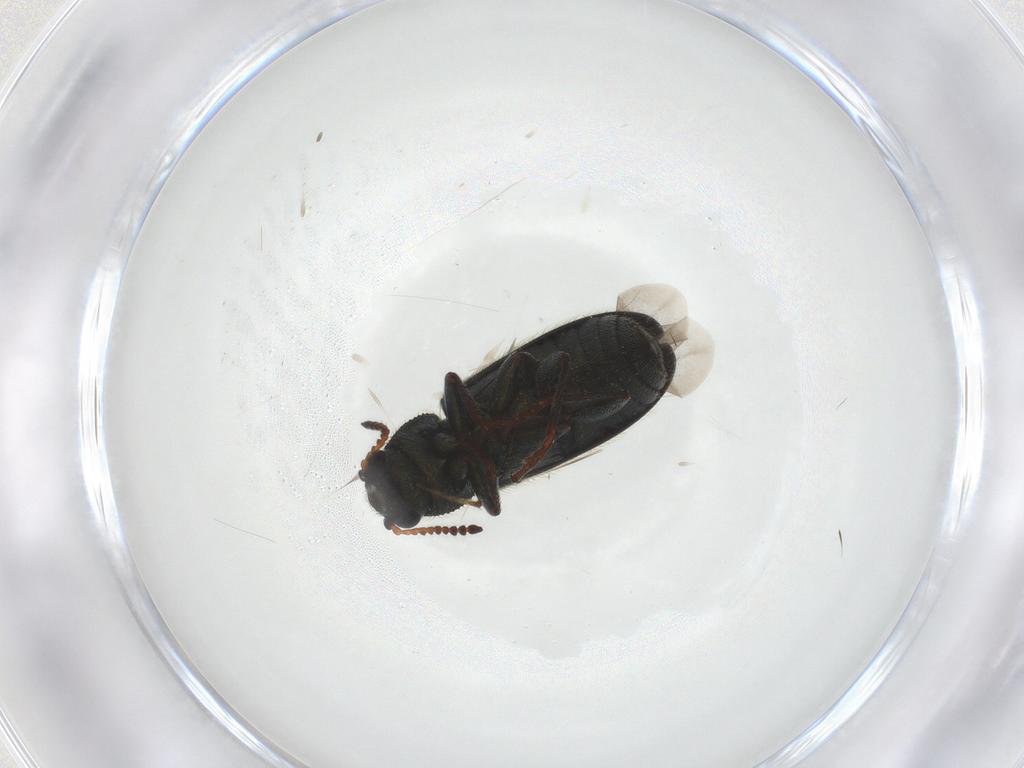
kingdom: Animalia
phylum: Arthropoda
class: Insecta
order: Coleoptera
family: Melyridae
